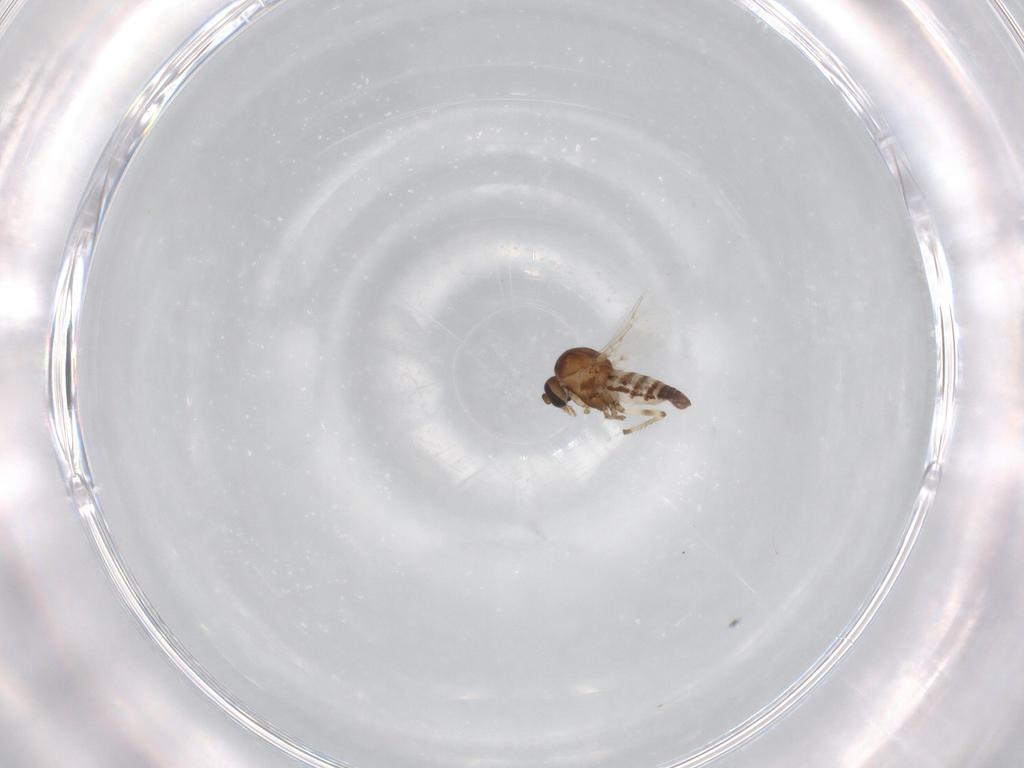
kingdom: Animalia
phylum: Arthropoda
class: Insecta
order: Diptera
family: Ceratopogonidae
